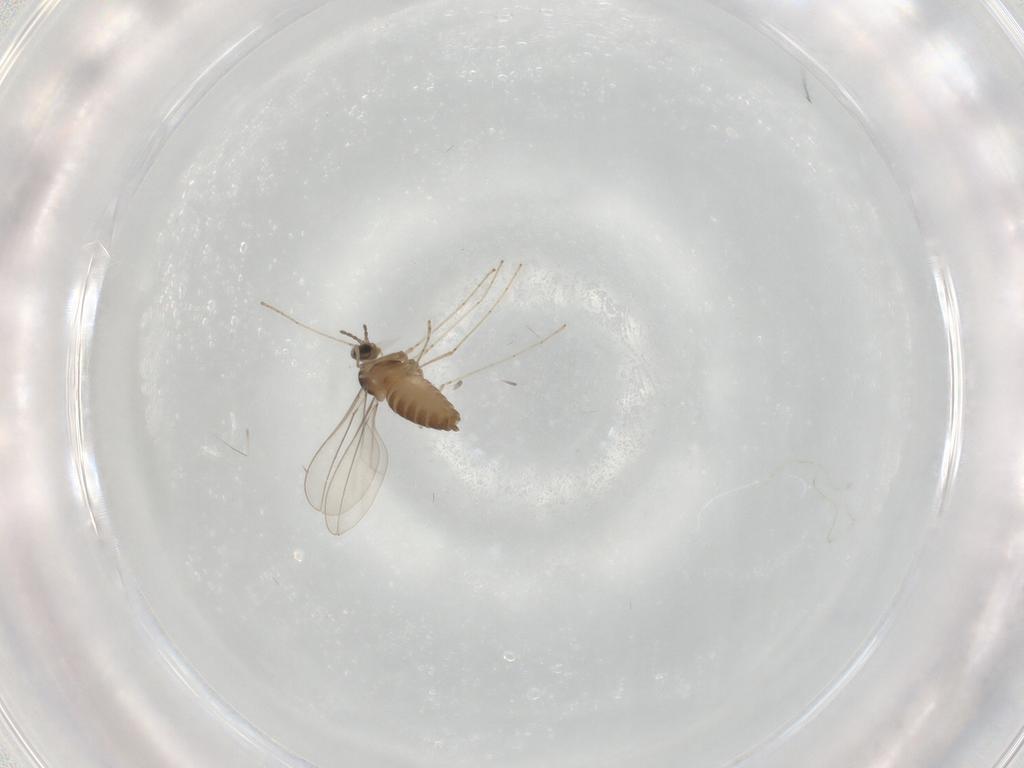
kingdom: Animalia
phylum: Arthropoda
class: Insecta
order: Diptera
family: Cecidomyiidae
